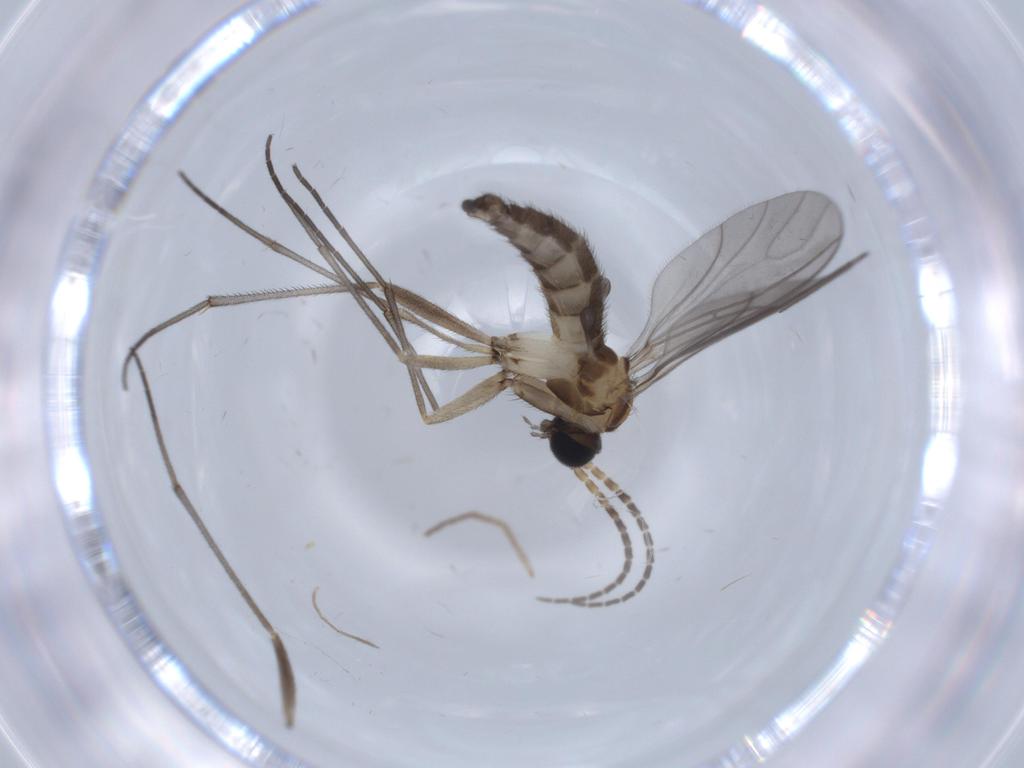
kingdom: Animalia
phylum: Arthropoda
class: Insecta
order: Diptera
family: Sciaridae
